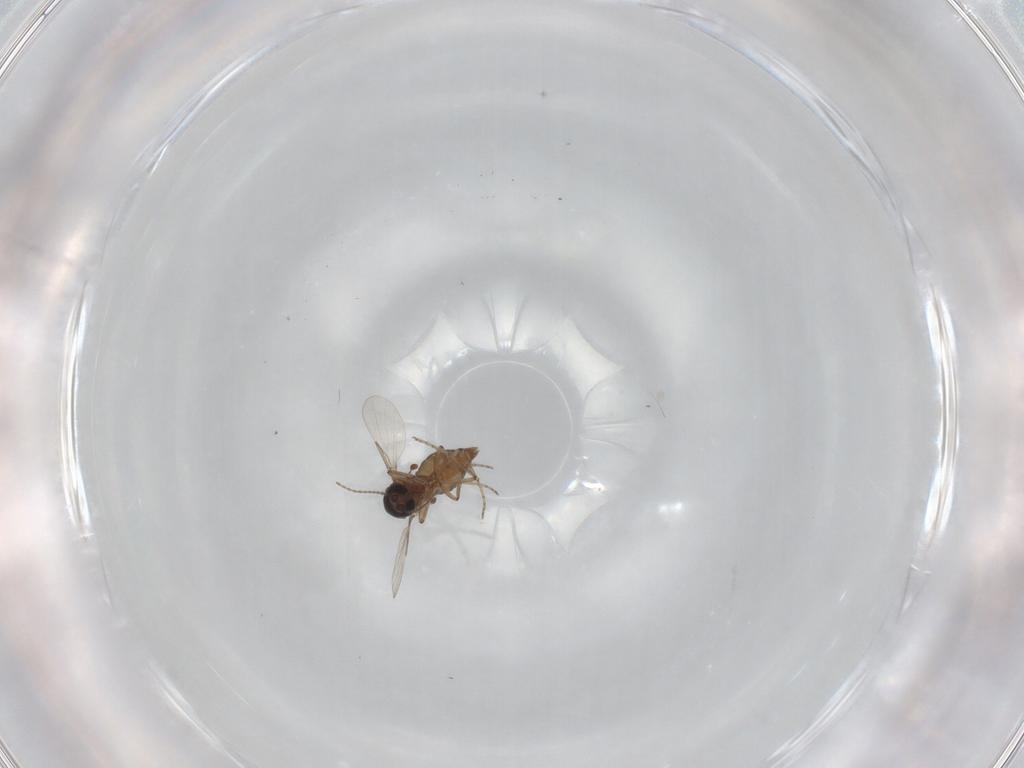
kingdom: Animalia
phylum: Arthropoda
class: Insecta
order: Diptera
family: Ceratopogonidae
